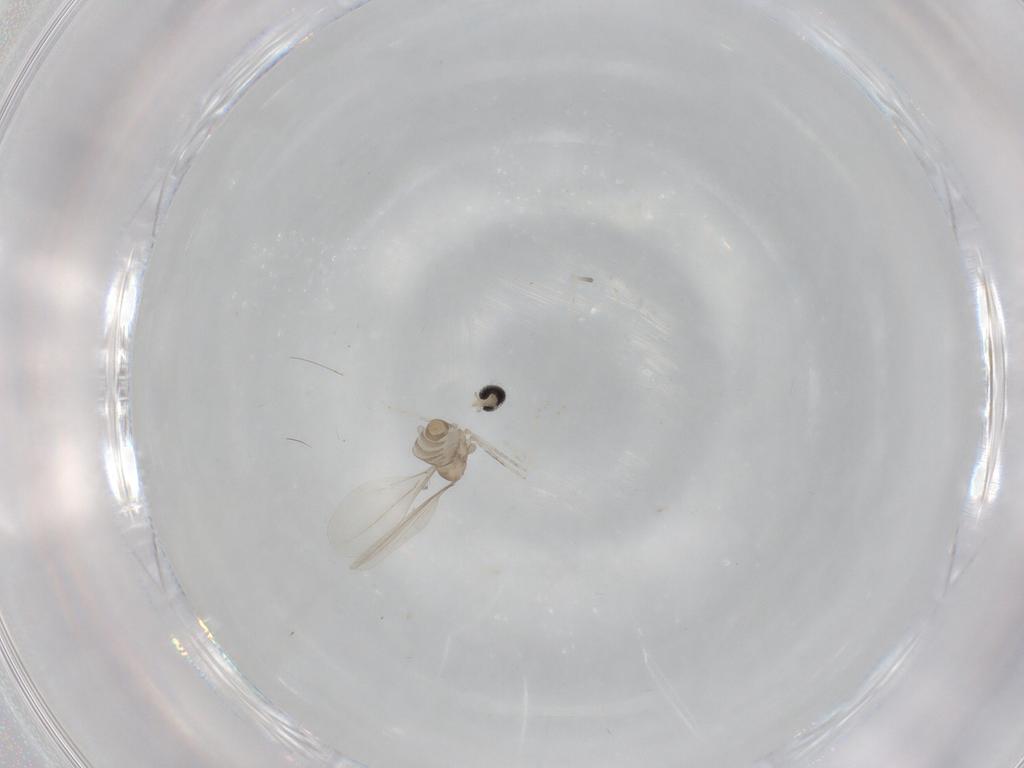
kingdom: Animalia
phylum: Arthropoda
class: Insecta
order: Diptera
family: Cecidomyiidae
